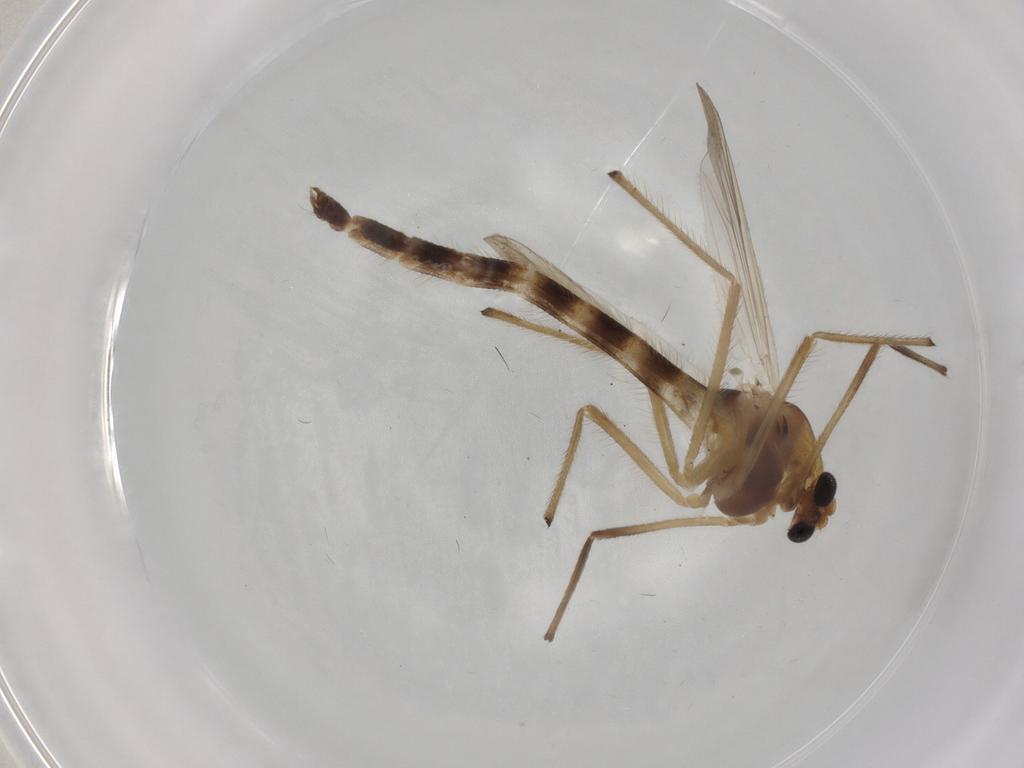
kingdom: Animalia
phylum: Arthropoda
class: Insecta
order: Diptera
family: Chironomidae
